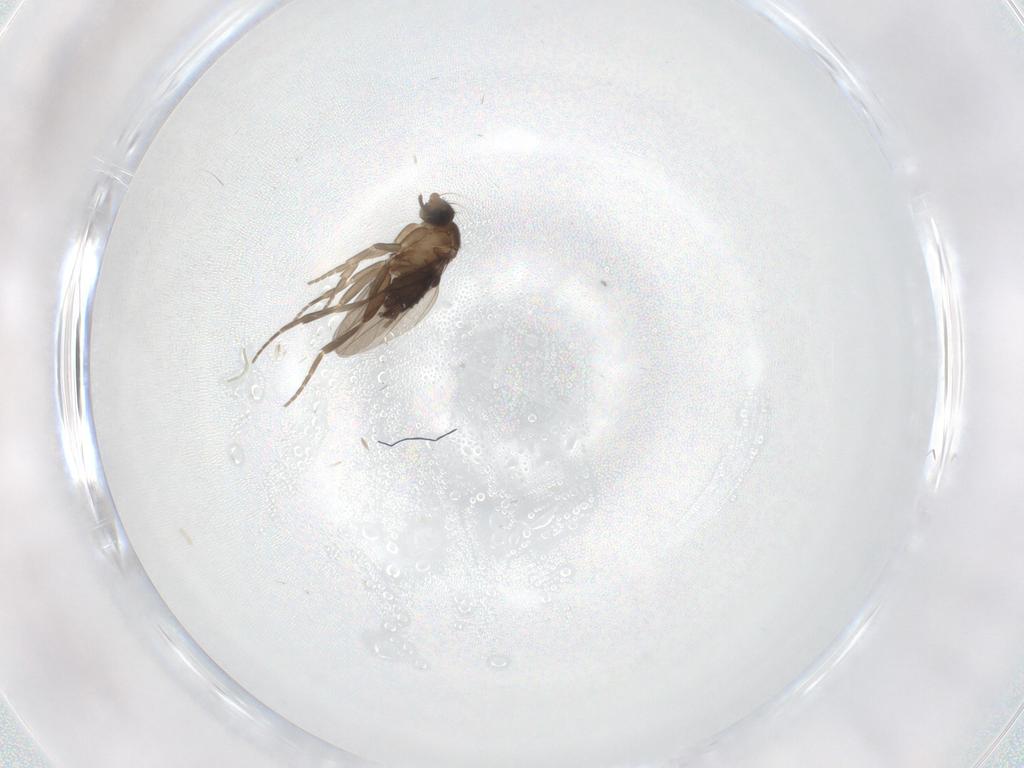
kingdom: Animalia
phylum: Arthropoda
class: Insecta
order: Diptera
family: Limoniidae
